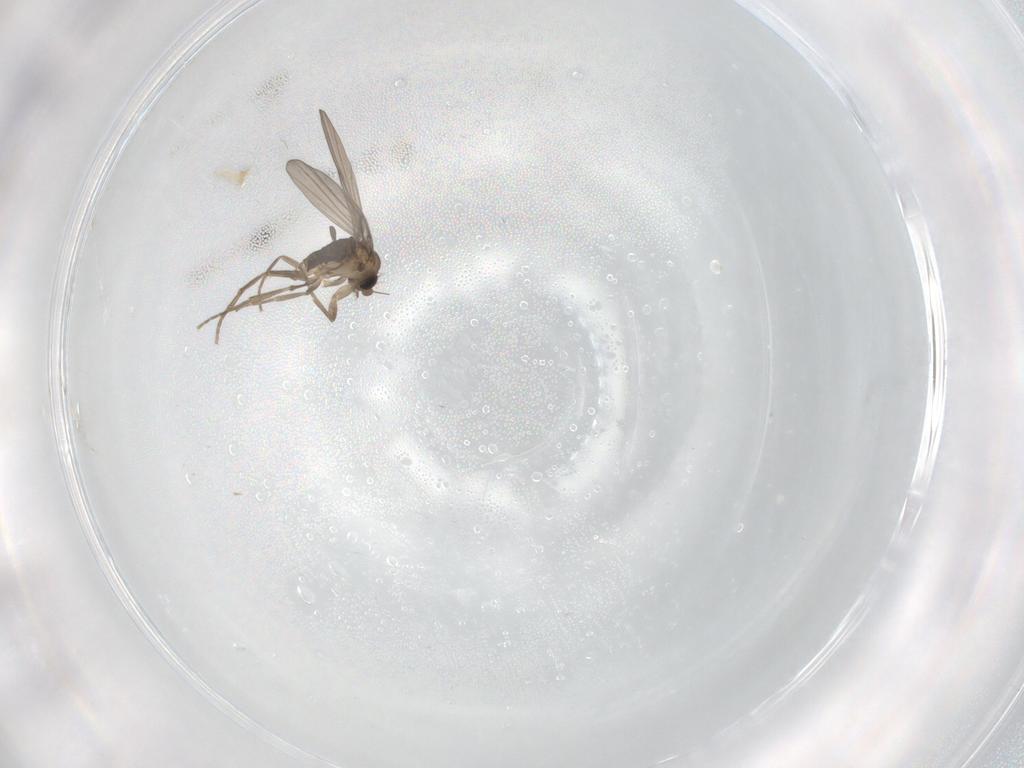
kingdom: Animalia
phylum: Arthropoda
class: Insecta
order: Diptera
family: Phoridae
